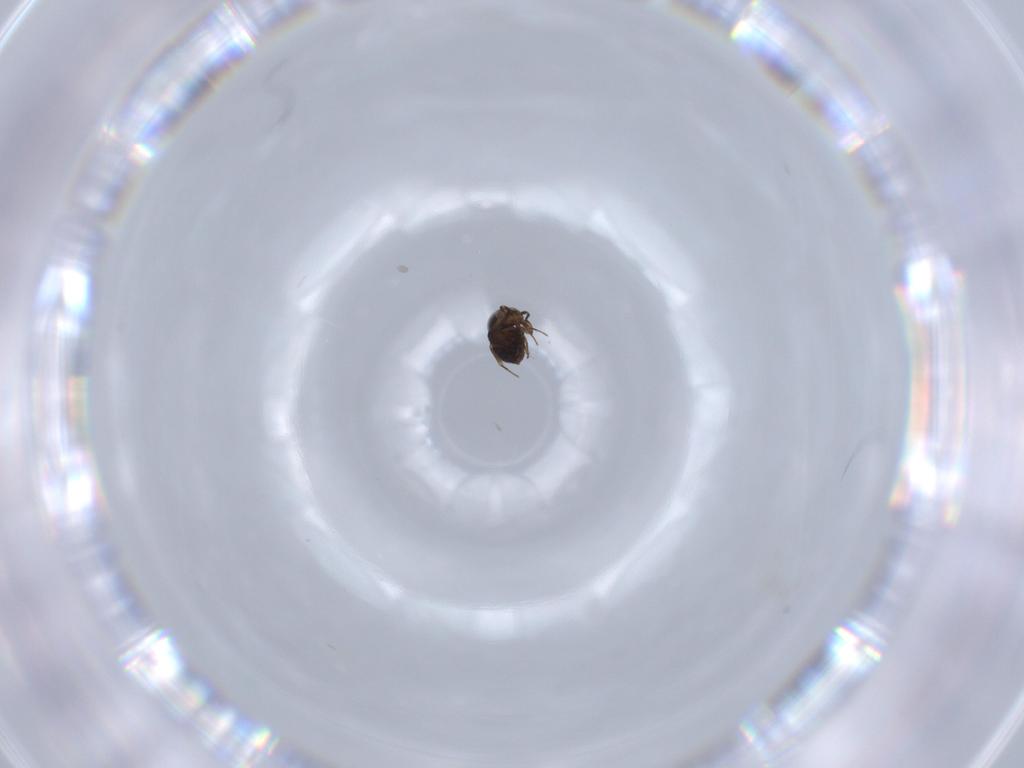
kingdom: Animalia
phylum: Arthropoda
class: Insecta
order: Hymenoptera
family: Scelionidae
